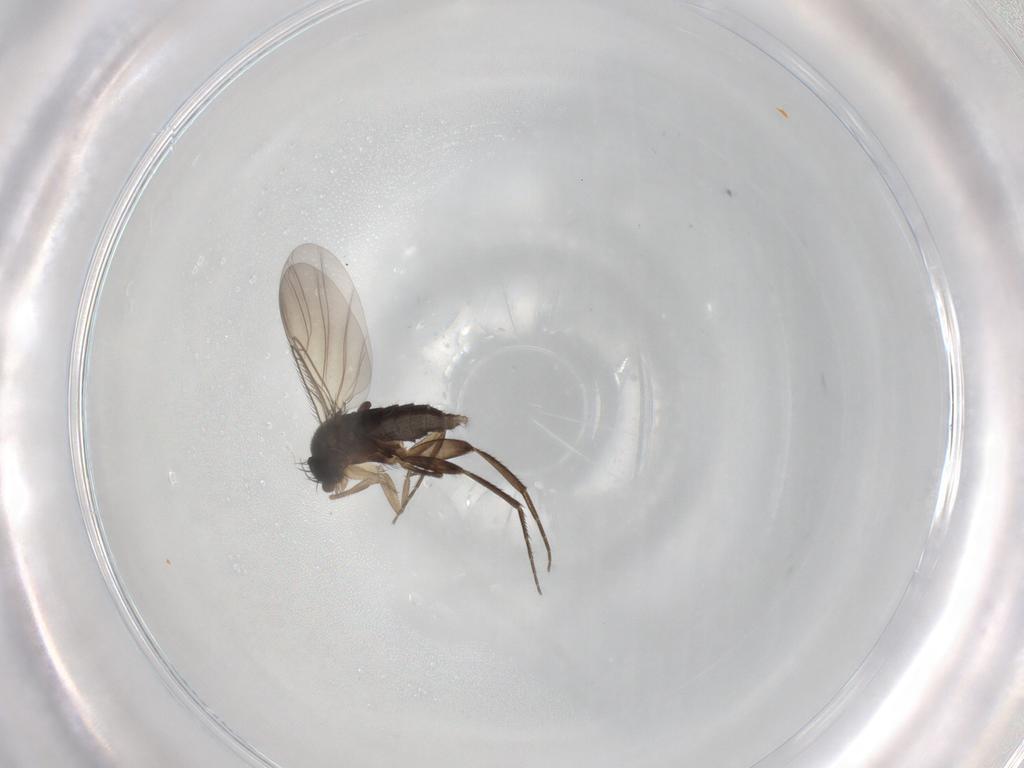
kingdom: Animalia
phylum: Arthropoda
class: Insecta
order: Diptera
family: Phoridae
